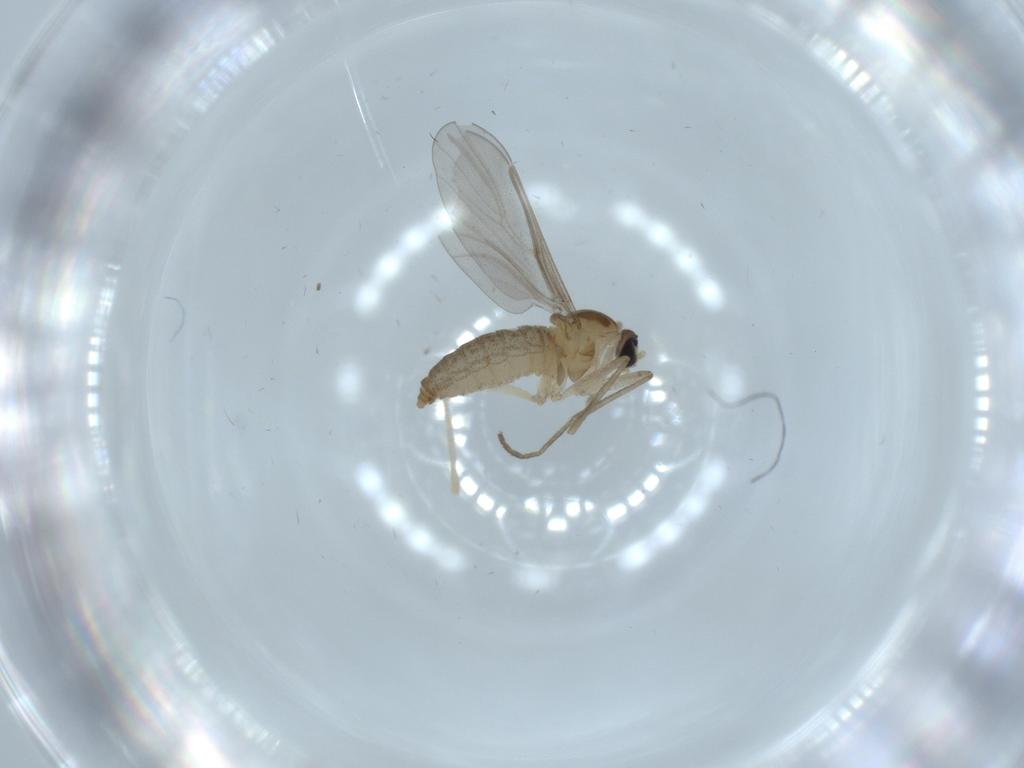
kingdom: Animalia
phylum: Arthropoda
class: Insecta
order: Diptera
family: Cecidomyiidae
